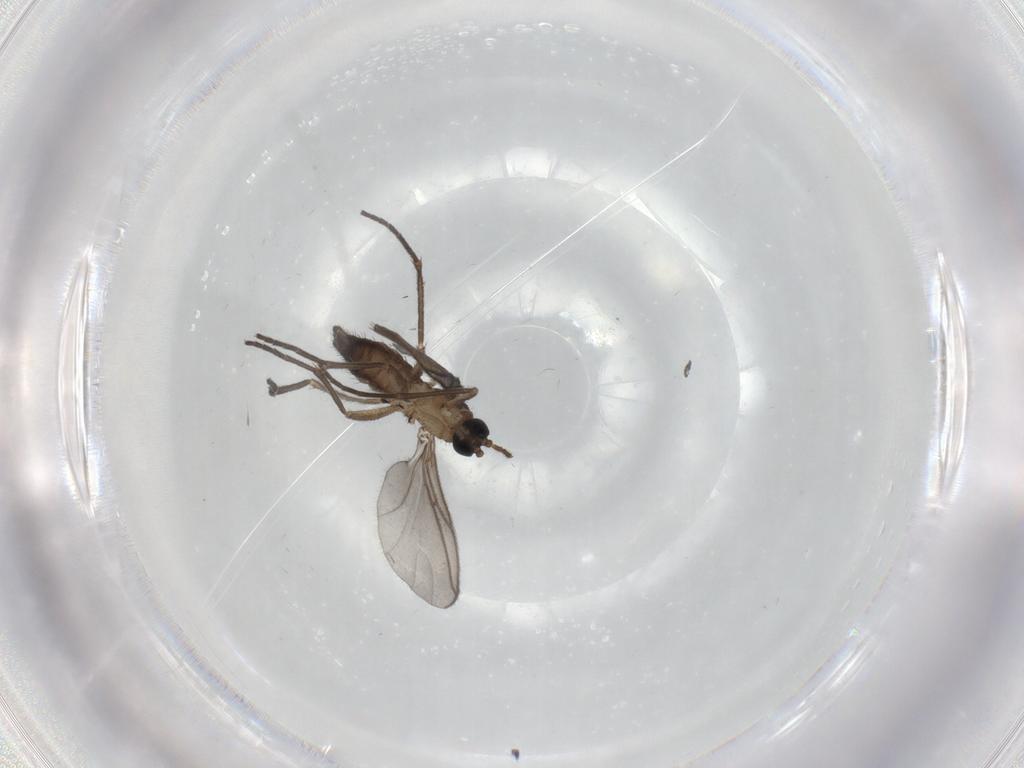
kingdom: Animalia
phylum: Arthropoda
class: Insecta
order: Diptera
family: Sciaridae
